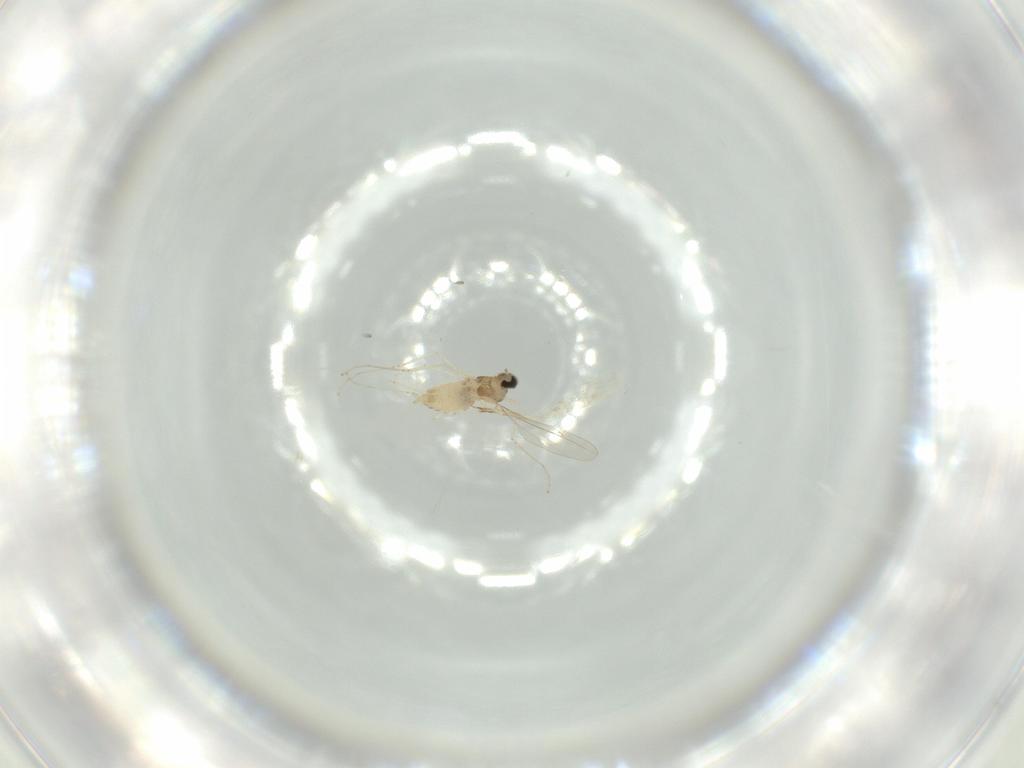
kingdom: Animalia
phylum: Arthropoda
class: Insecta
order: Diptera
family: Cecidomyiidae
